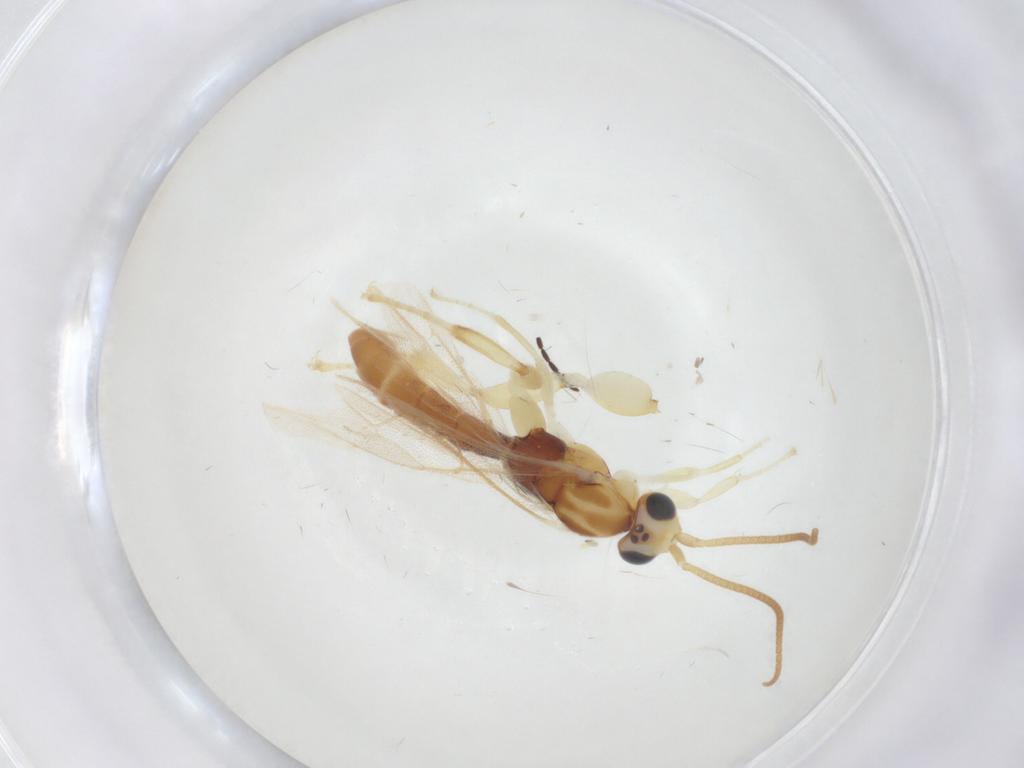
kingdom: Animalia
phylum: Arthropoda
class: Insecta
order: Hymenoptera
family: Figitidae
